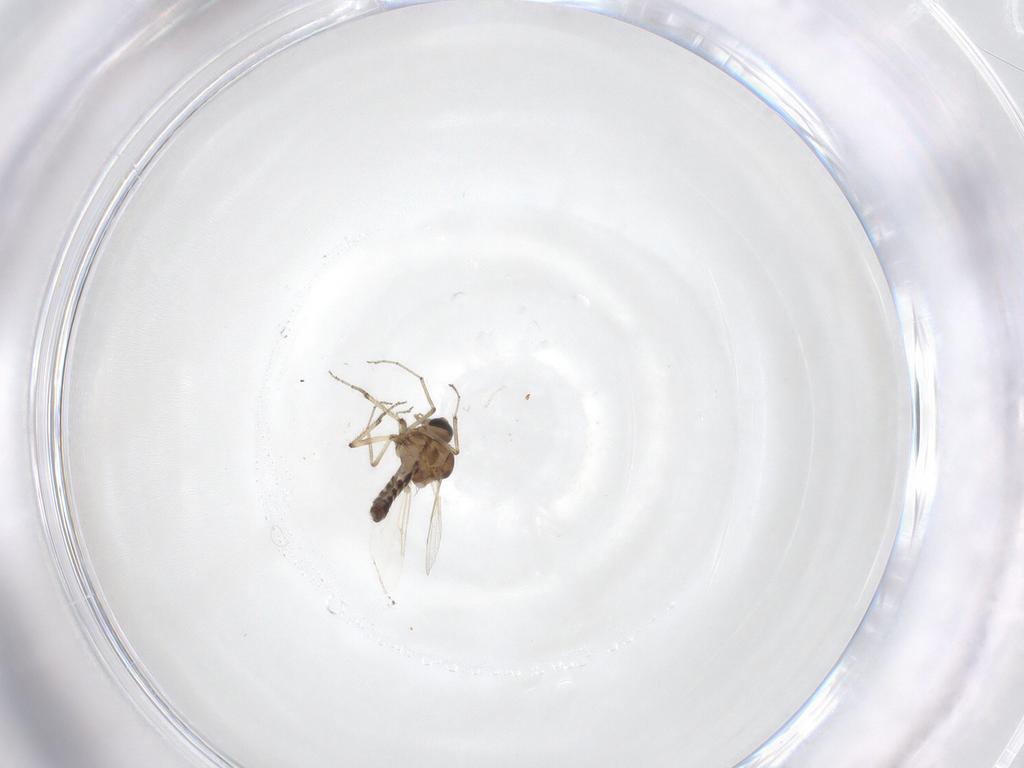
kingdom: Animalia
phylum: Arthropoda
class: Insecta
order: Diptera
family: Ceratopogonidae
